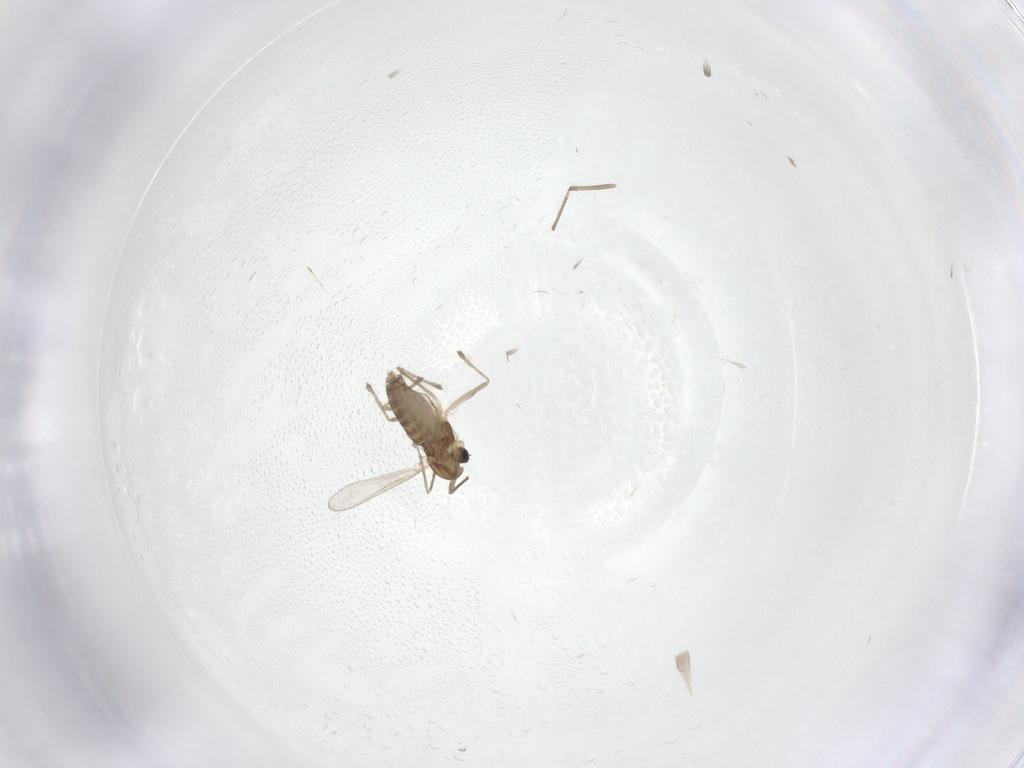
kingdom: Animalia
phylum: Arthropoda
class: Insecta
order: Diptera
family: Chironomidae
